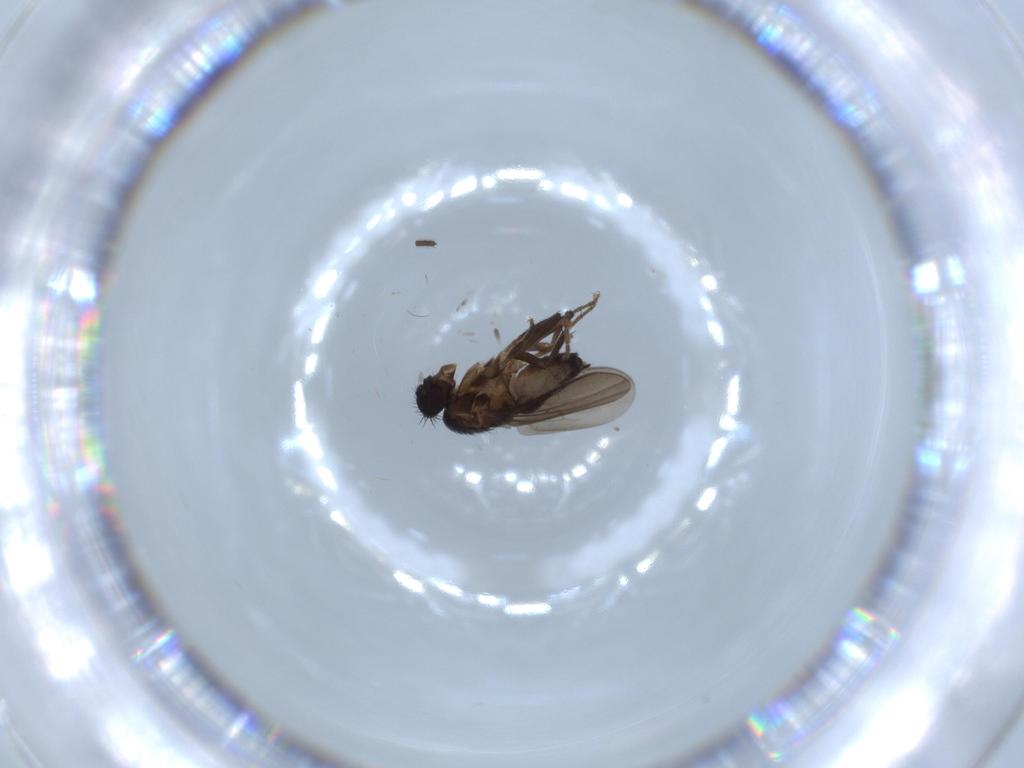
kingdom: Animalia
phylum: Arthropoda
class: Insecta
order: Diptera
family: Sphaeroceridae
